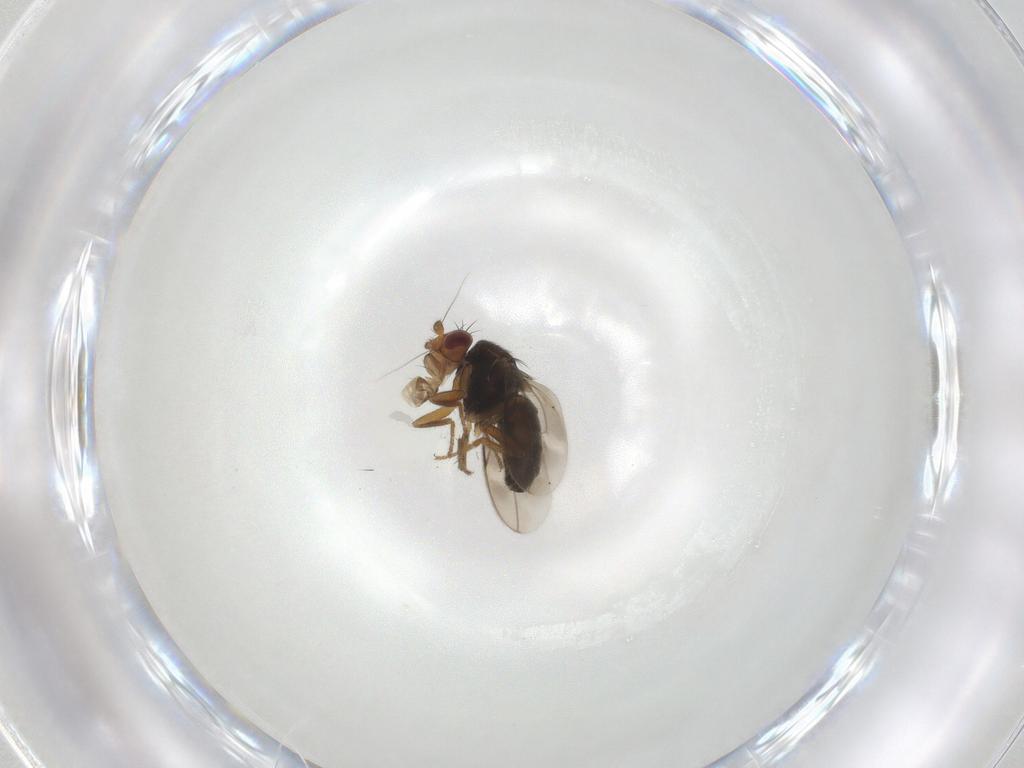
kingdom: Animalia
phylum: Arthropoda
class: Insecta
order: Diptera
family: Sphaeroceridae
